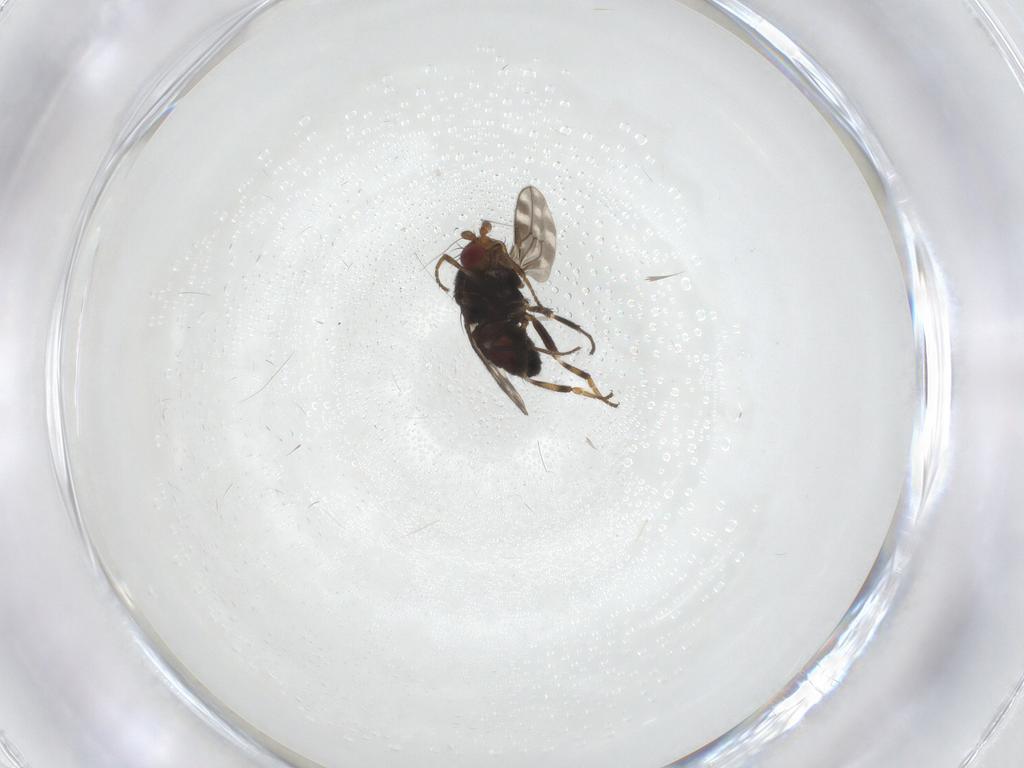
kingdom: Animalia
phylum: Arthropoda
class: Insecta
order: Diptera
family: Sphaeroceridae
